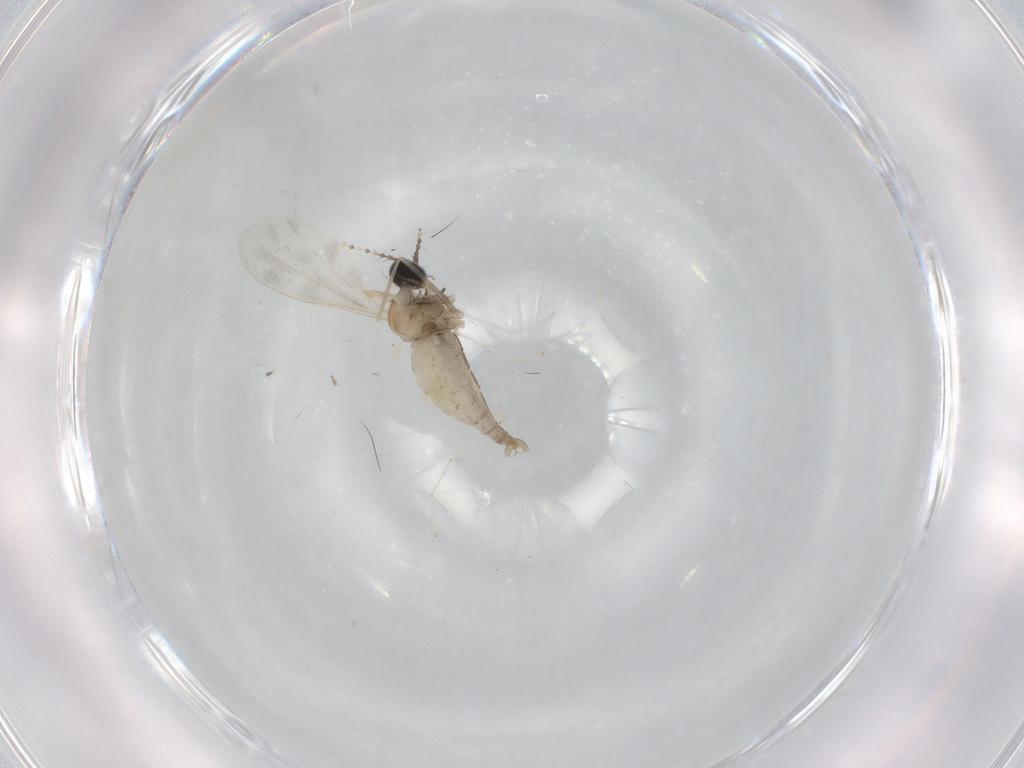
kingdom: Animalia
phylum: Arthropoda
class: Insecta
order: Diptera
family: Cecidomyiidae
